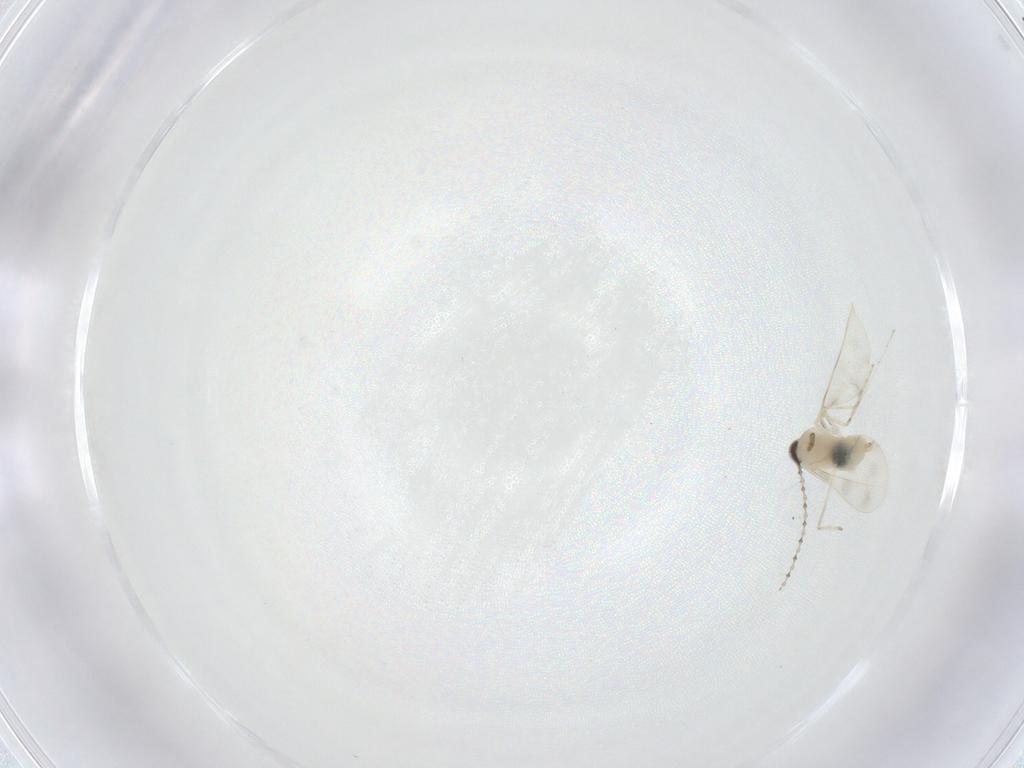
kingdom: Animalia
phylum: Arthropoda
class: Insecta
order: Diptera
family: Cecidomyiidae
